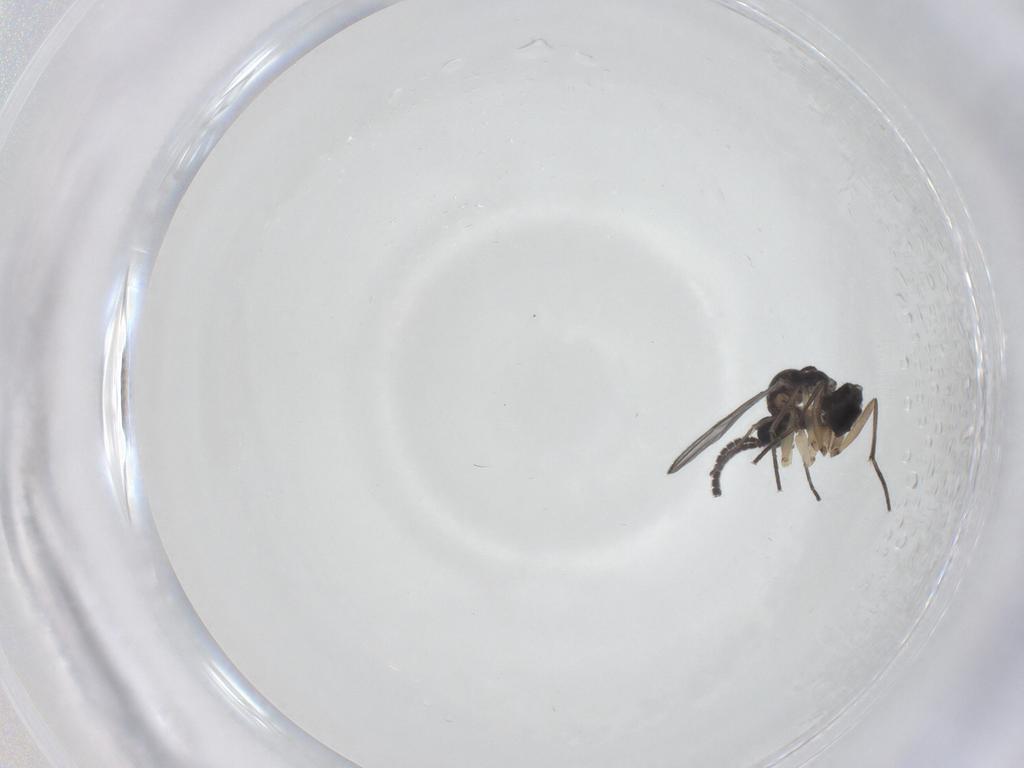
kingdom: Animalia
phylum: Arthropoda
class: Insecta
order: Diptera
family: Sciaridae
